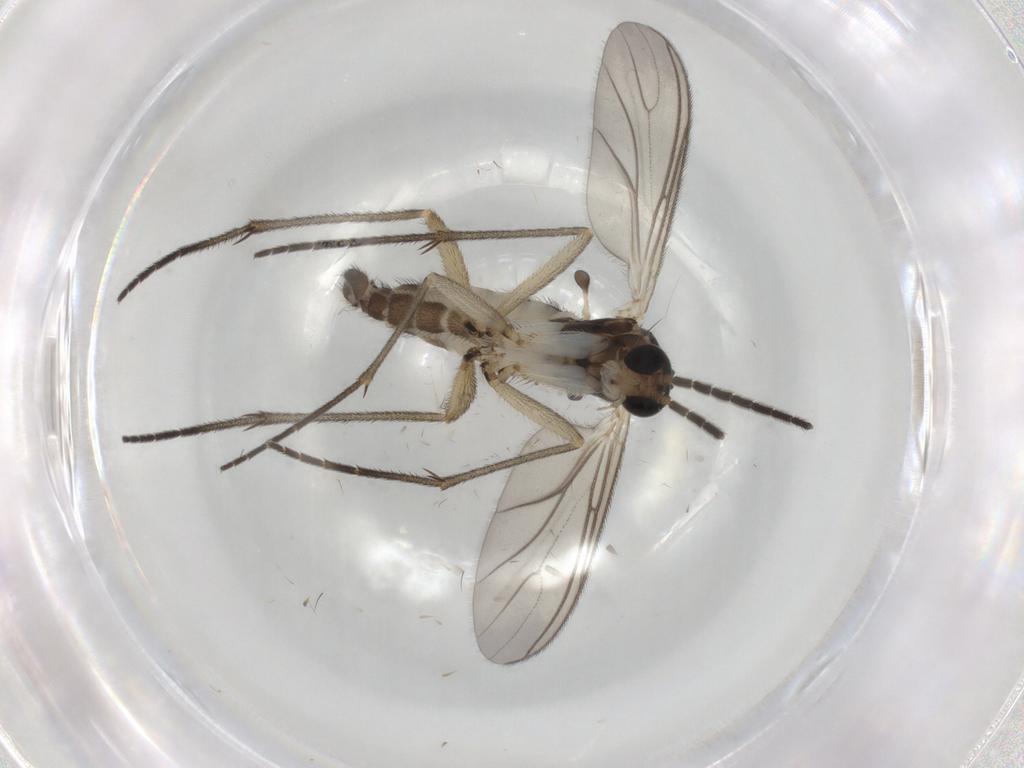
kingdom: Animalia
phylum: Arthropoda
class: Insecta
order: Diptera
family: Sciaridae
